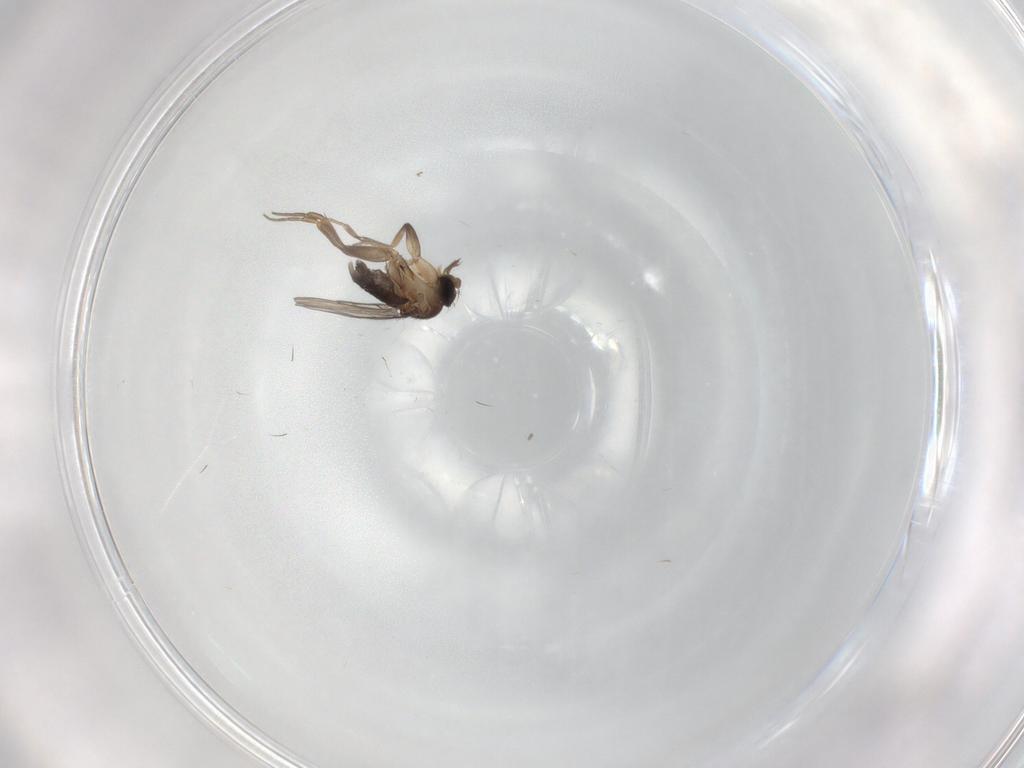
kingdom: Animalia
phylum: Arthropoda
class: Insecta
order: Diptera
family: Phoridae
